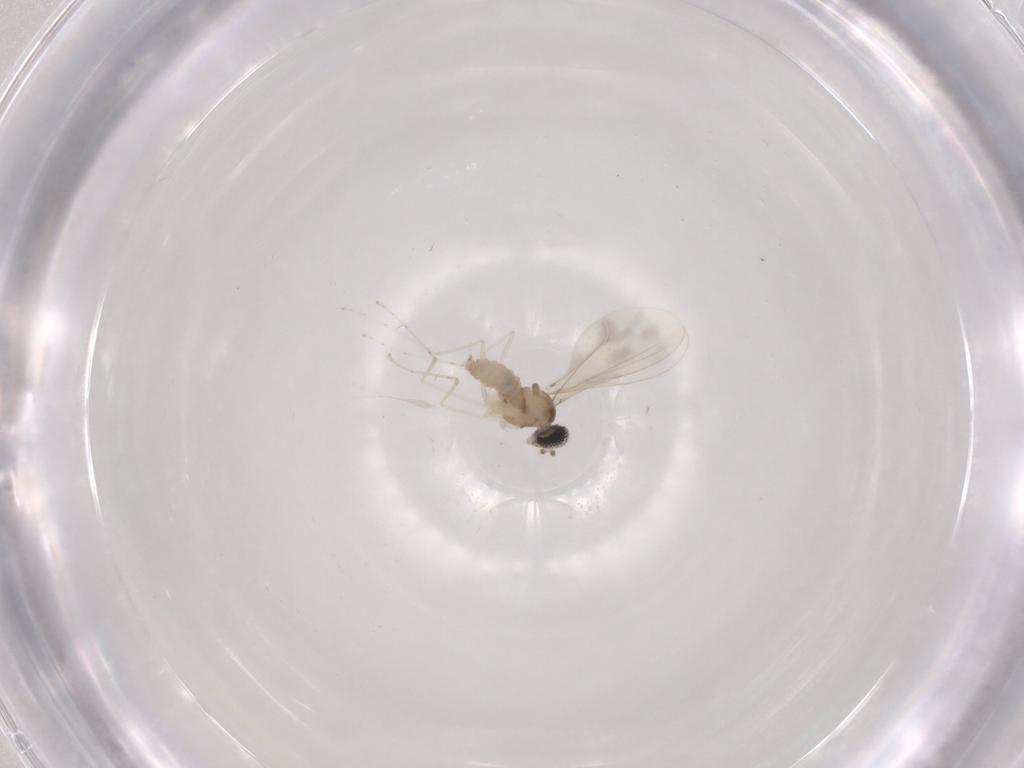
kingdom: Animalia
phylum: Arthropoda
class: Insecta
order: Diptera
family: Cecidomyiidae
